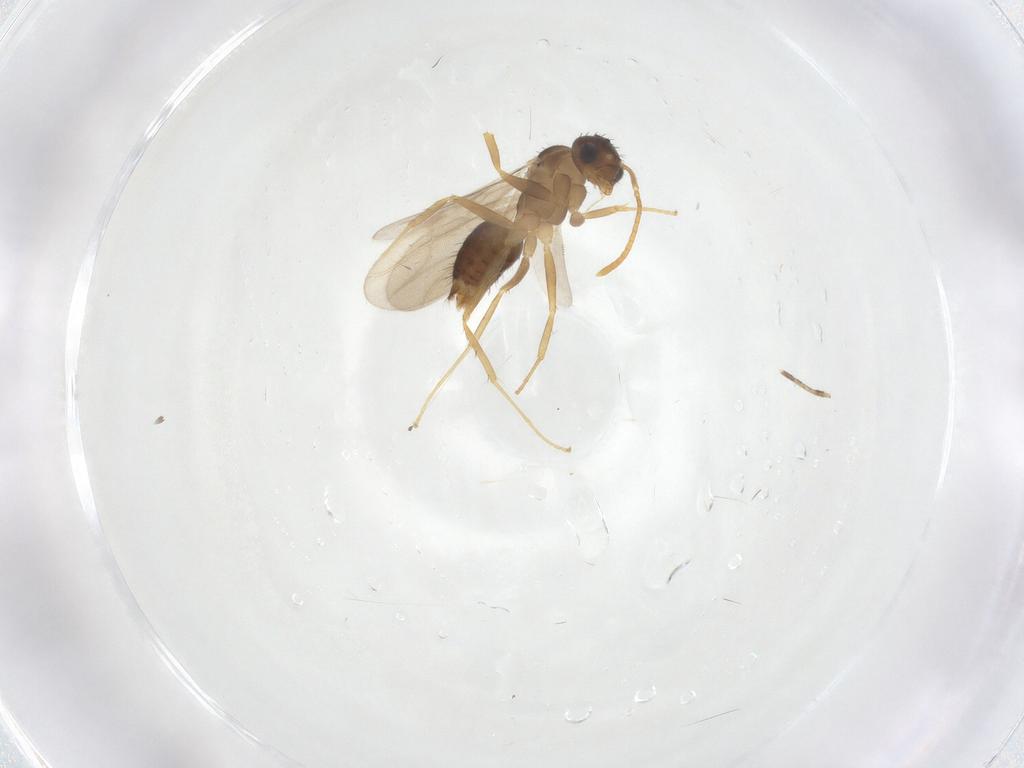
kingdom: Animalia
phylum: Arthropoda
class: Insecta
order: Hymenoptera
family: Formicidae
